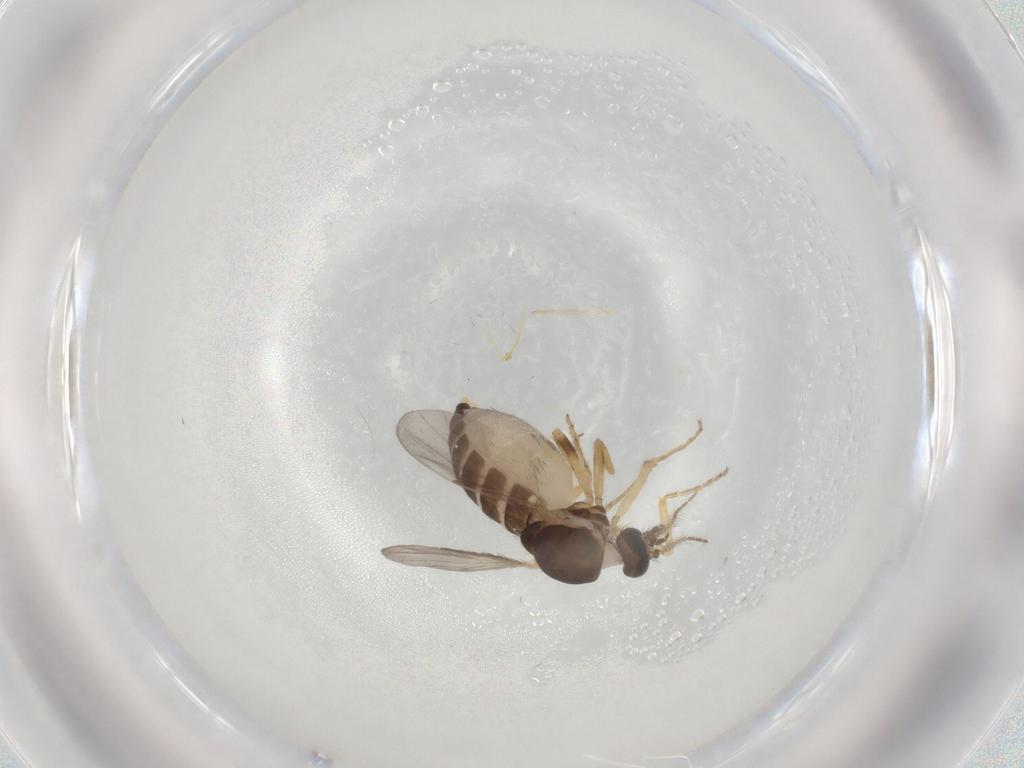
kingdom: Animalia
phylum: Arthropoda
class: Insecta
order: Diptera
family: Ceratopogonidae
